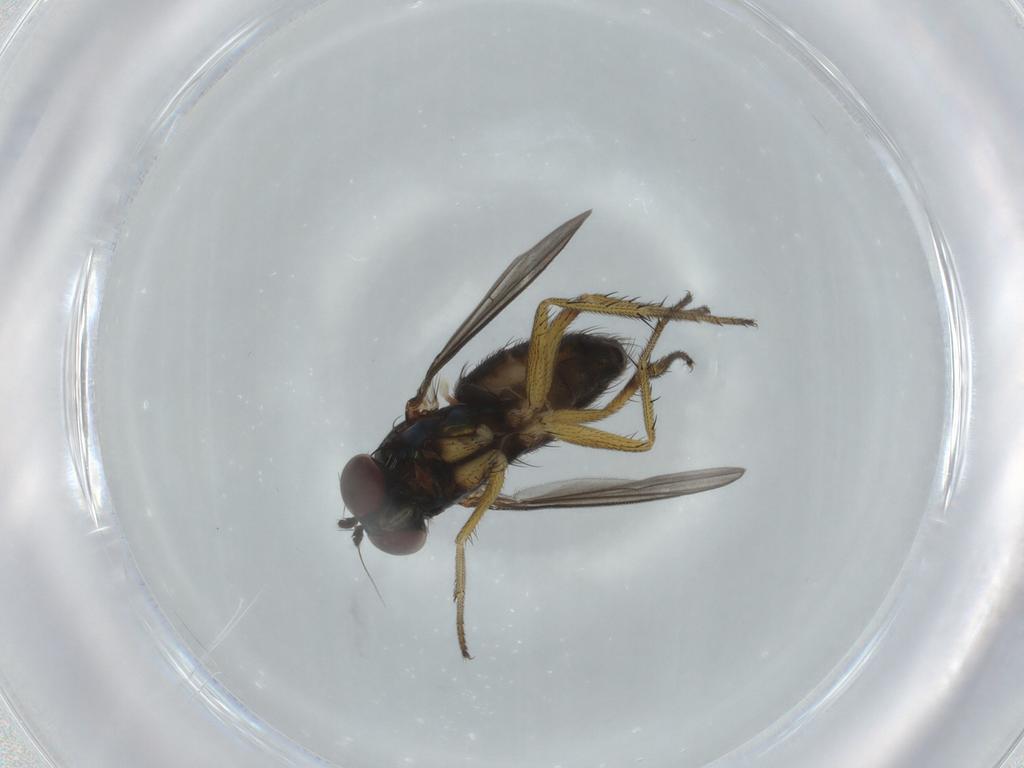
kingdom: Animalia
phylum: Arthropoda
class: Insecta
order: Diptera
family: Dolichopodidae
